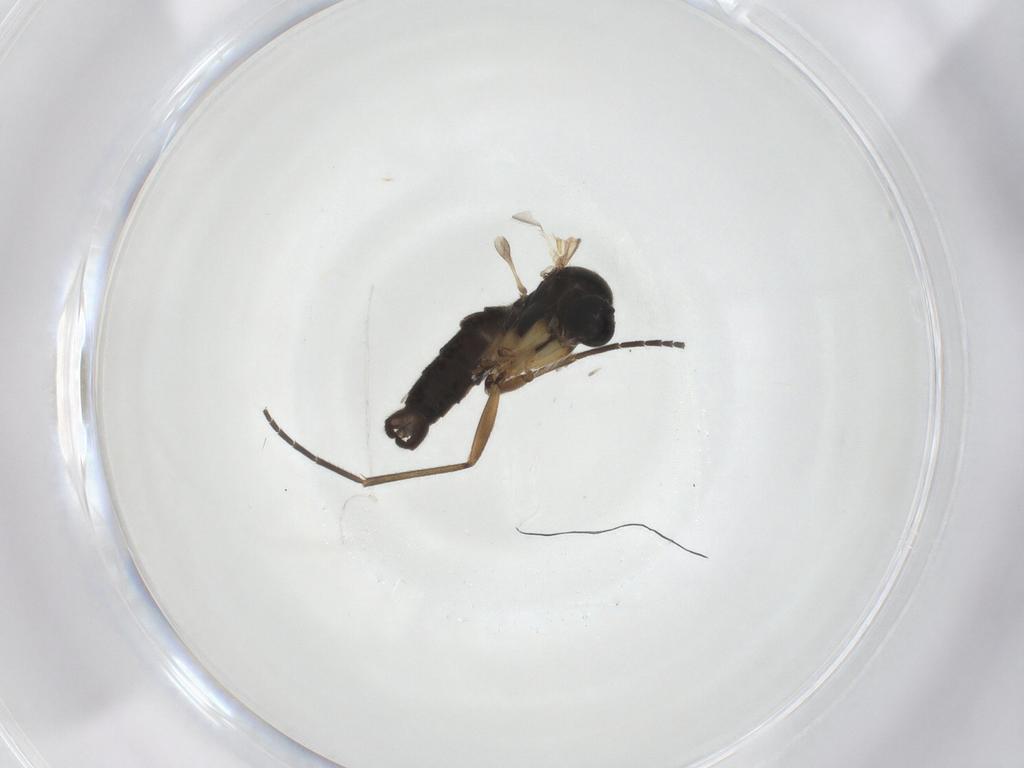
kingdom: Animalia
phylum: Arthropoda
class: Insecta
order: Diptera
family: Sciaridae
